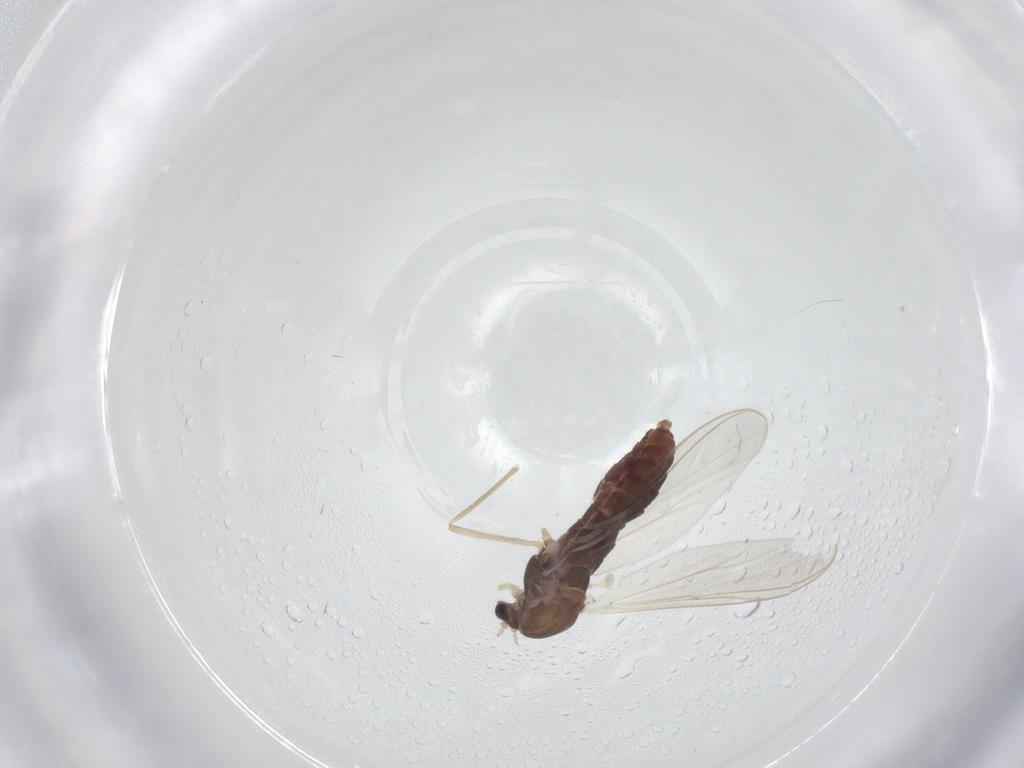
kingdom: Animalia
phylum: Arthropoda
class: Insecta
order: Diptera
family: Chironomidae
